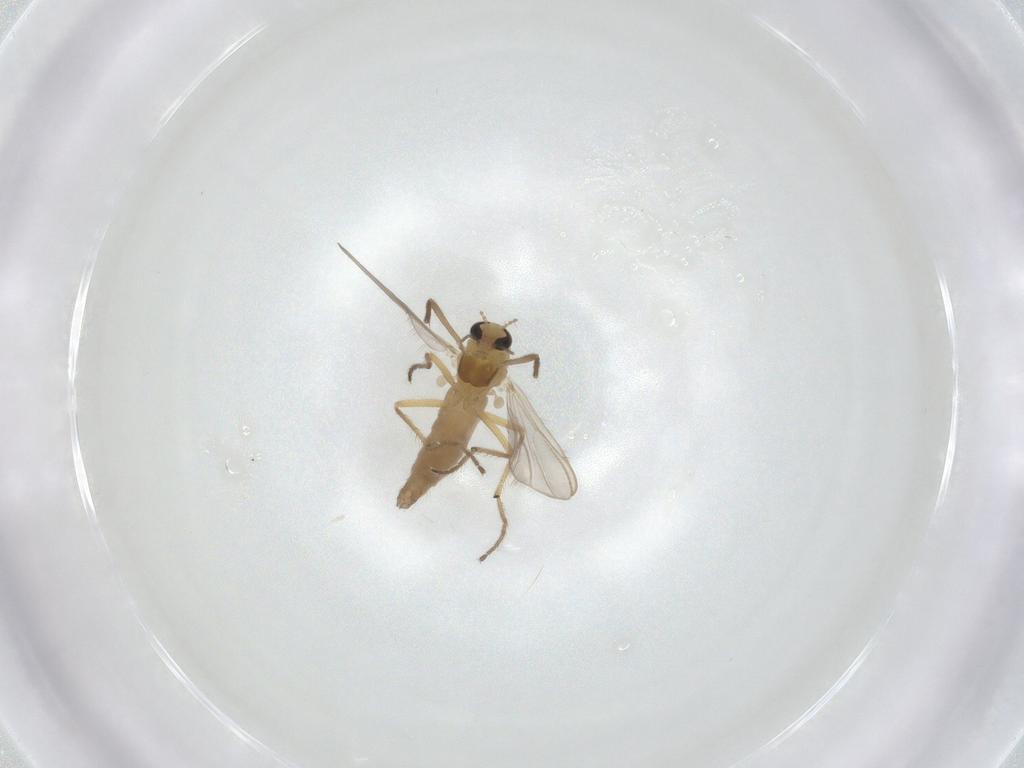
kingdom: Animalia
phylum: Arthropoda
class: Insecta
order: Diptera
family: Chironomidae
